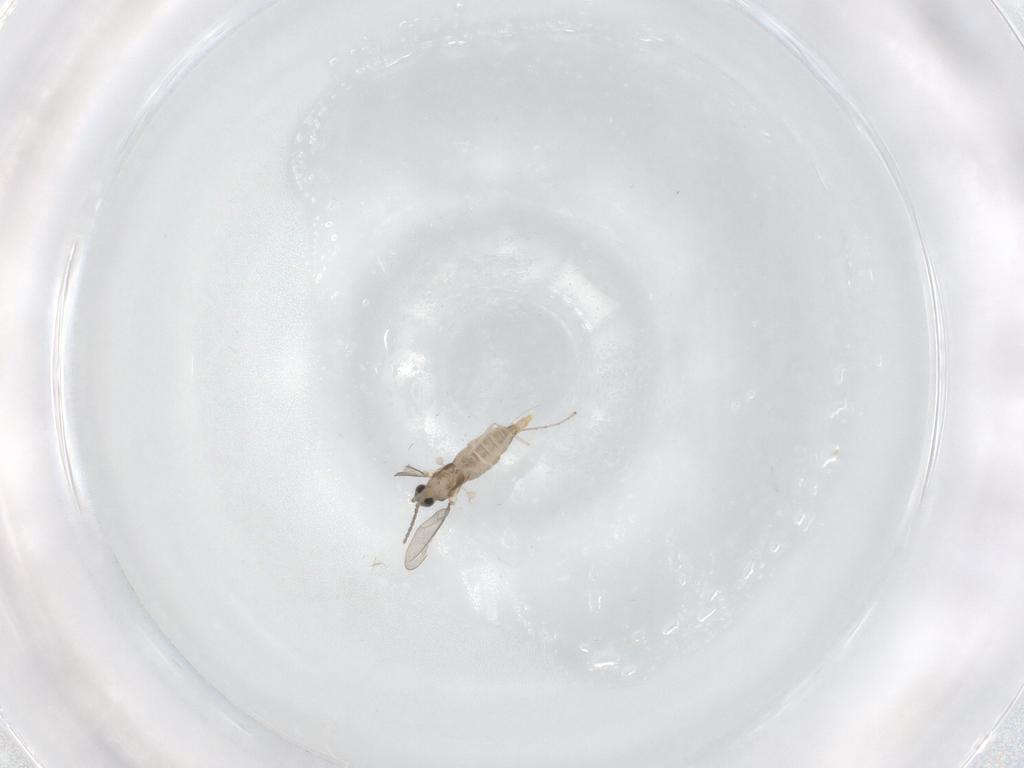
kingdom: Animalia
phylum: Arthropoda
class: Insecta
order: Diptera
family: Cecidomyiidae
